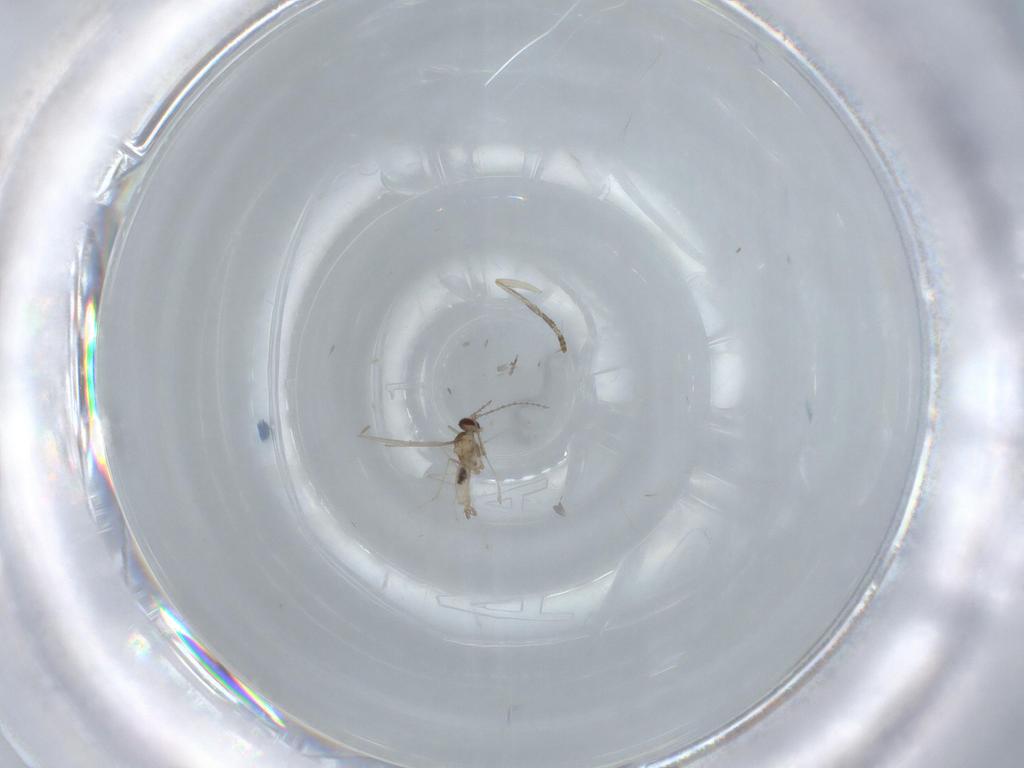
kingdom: Animalia
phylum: Arthropoda
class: Insecta
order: Diptera
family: Cecidomyiidae
